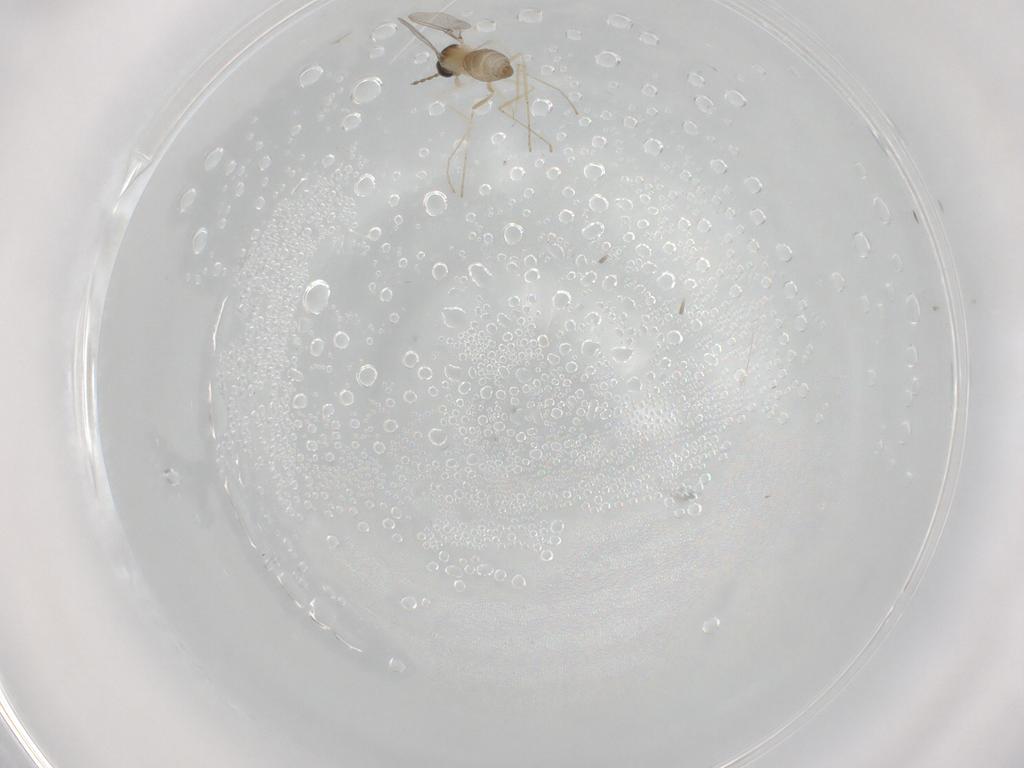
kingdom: Animalia
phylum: Arthropoda
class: Insecta
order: Diptera
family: Cecidomyiidae
